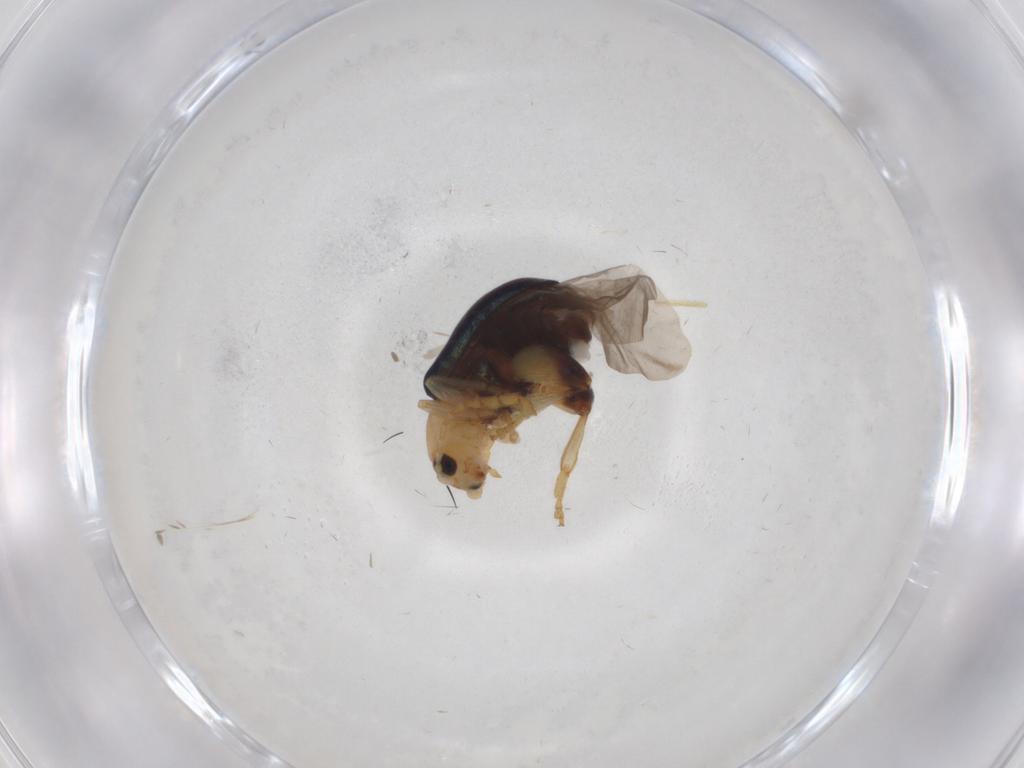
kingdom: Animalia
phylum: Arthropoda
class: Insecta
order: Coleoptera
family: Chrysomelidae
